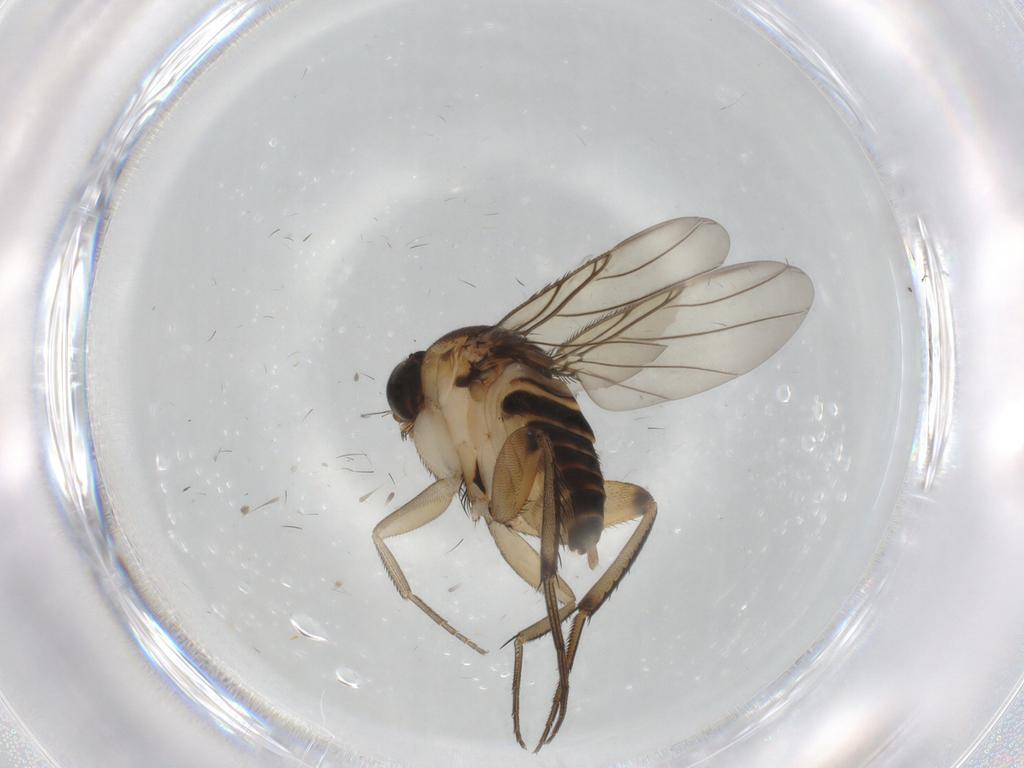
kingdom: Animalia
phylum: Arthropoda
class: Insecta
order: Diptera
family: Phoridae
